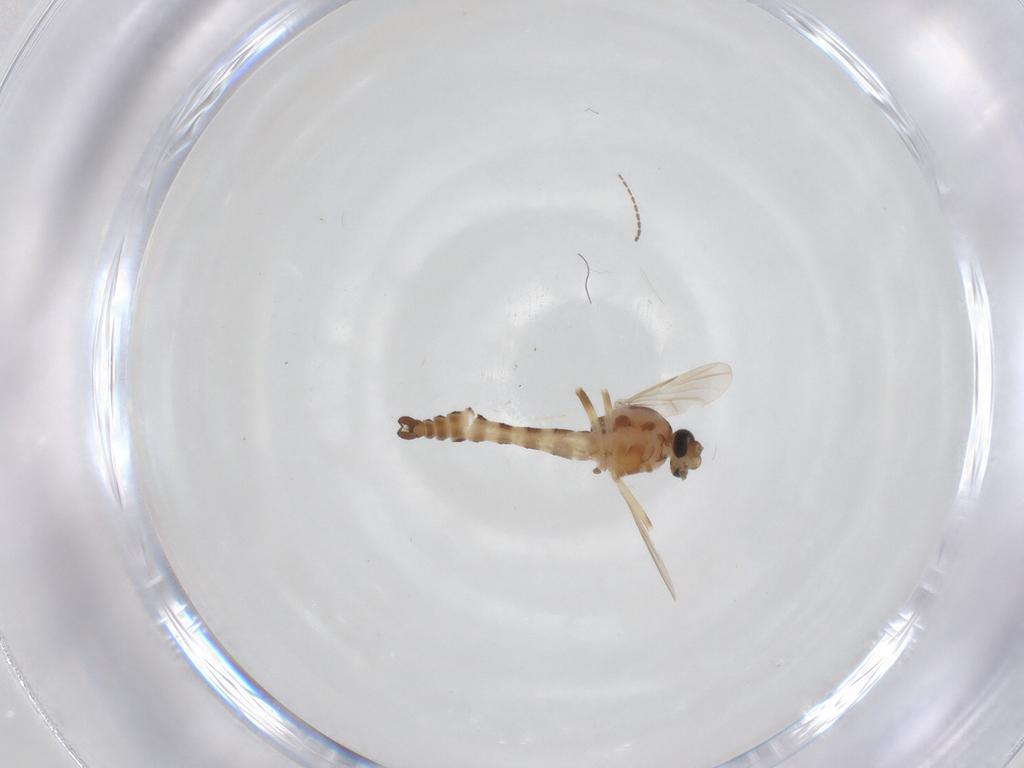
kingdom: Animalia
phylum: Arthropoda
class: Insecta
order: Diptera
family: Ceratopogonidae
